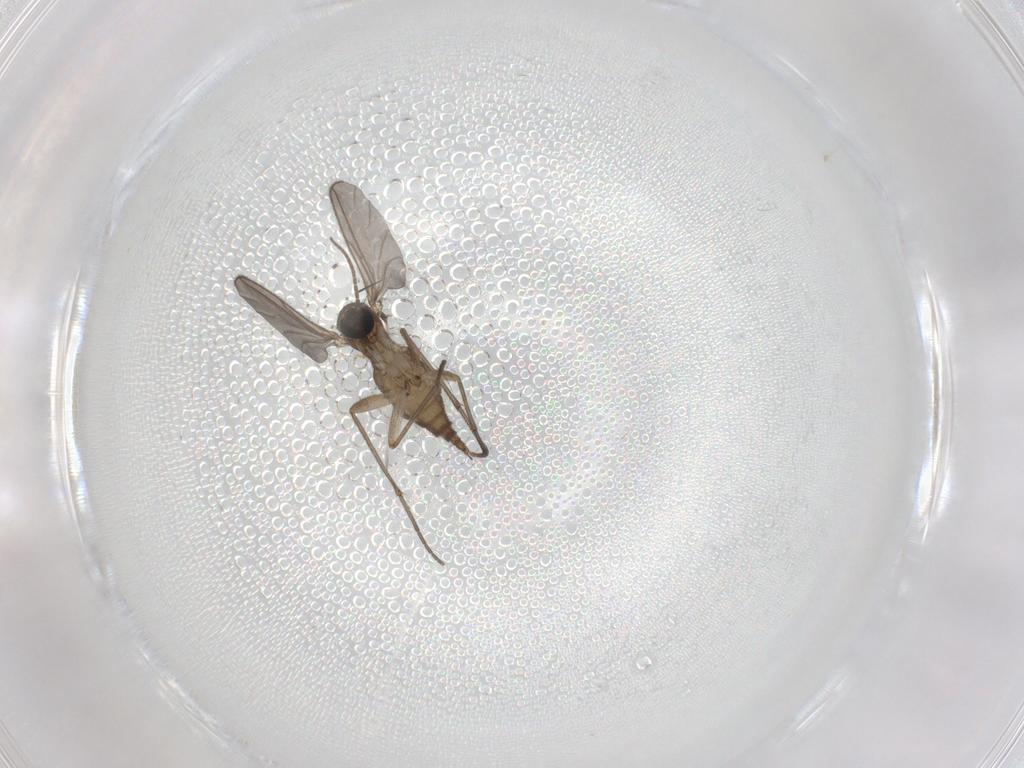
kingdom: Animalia
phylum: Arthropoda
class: Insecta
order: Diptera
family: Sciaridae
